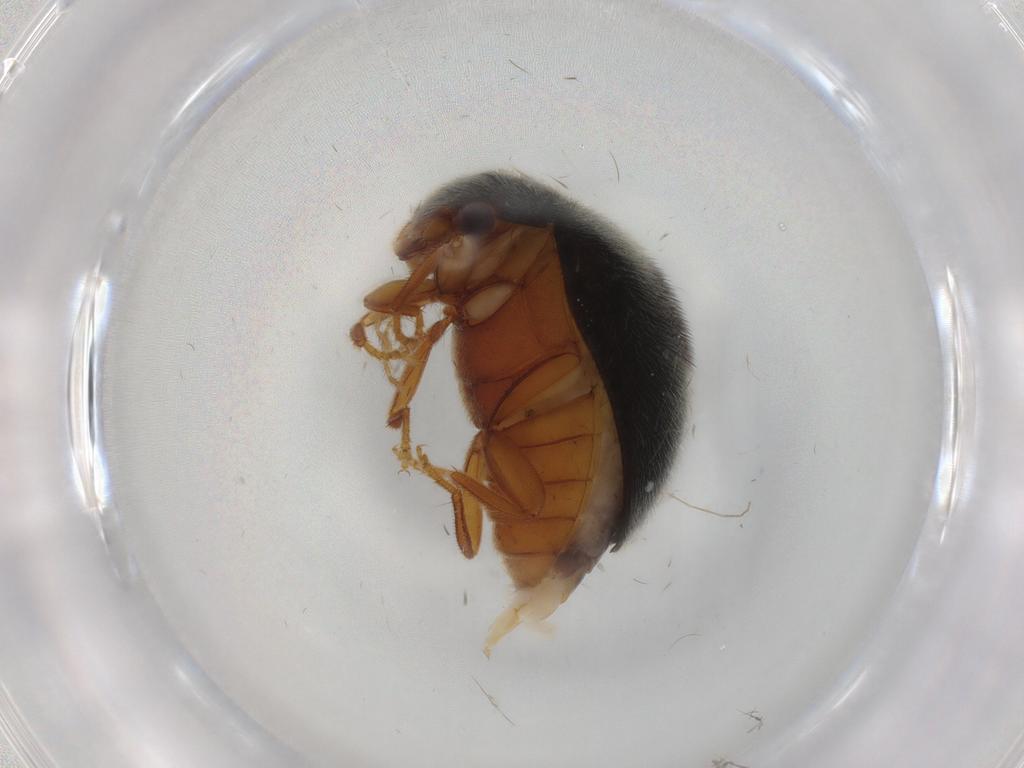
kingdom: Animalia
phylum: Arthropoda
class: Insecta
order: Coleoptera
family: Scirtidae
